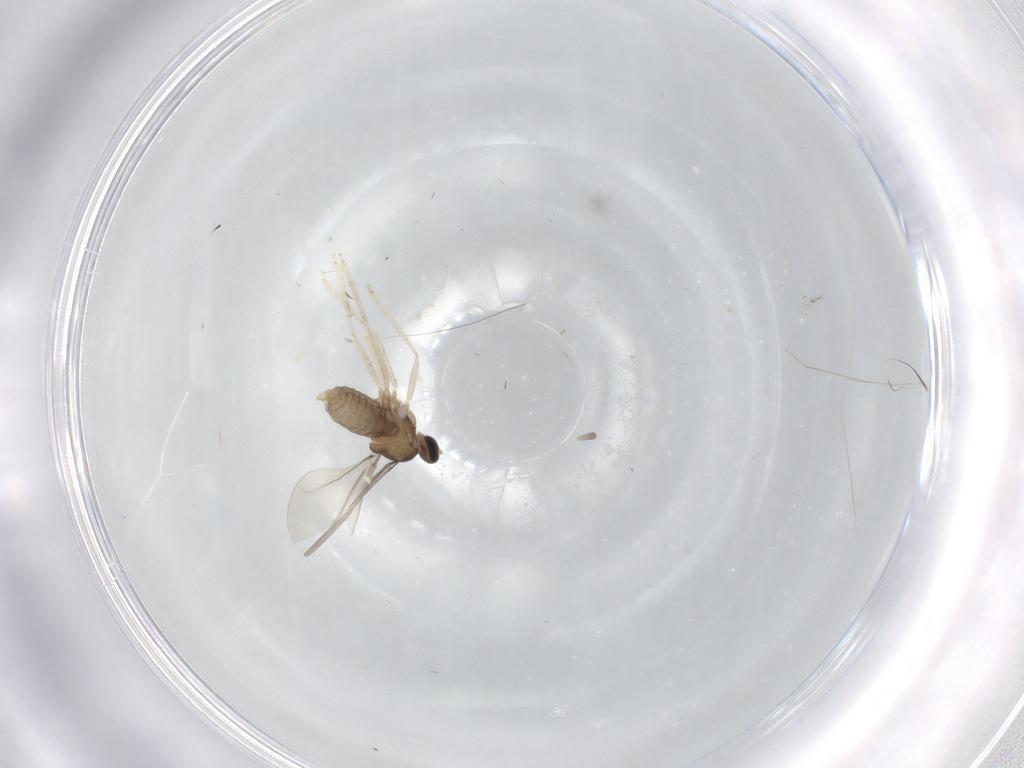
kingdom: Animalia
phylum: Arthropoda
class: Insecta
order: Diptera
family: Cecidomyiidae
